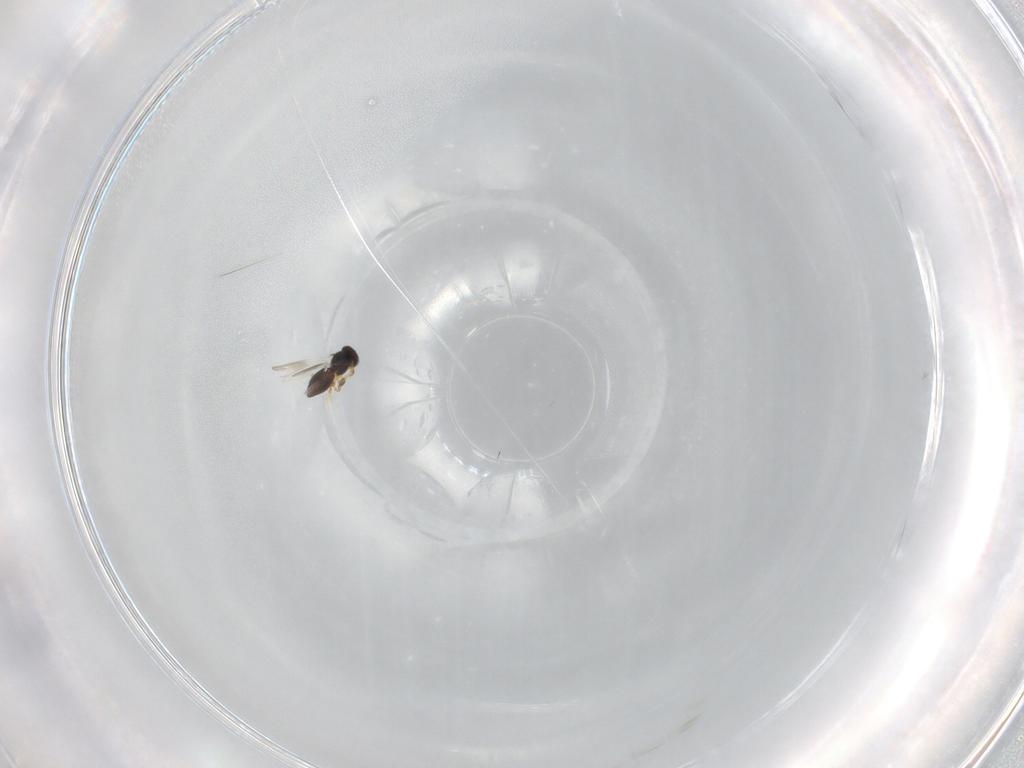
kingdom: Animalia
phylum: Arthropoda
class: Insecta
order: Hymenoptera
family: Platygastridae
